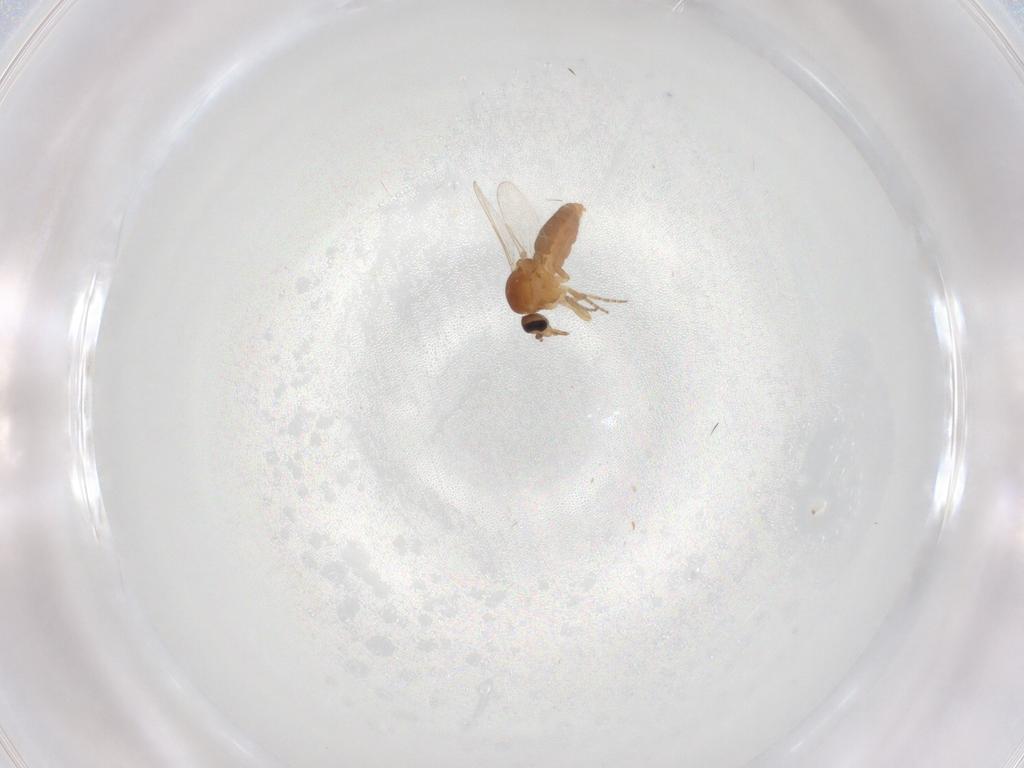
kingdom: Animalia
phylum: Arthropoda
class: Insecta
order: Diptera
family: Ceratopogonidae
